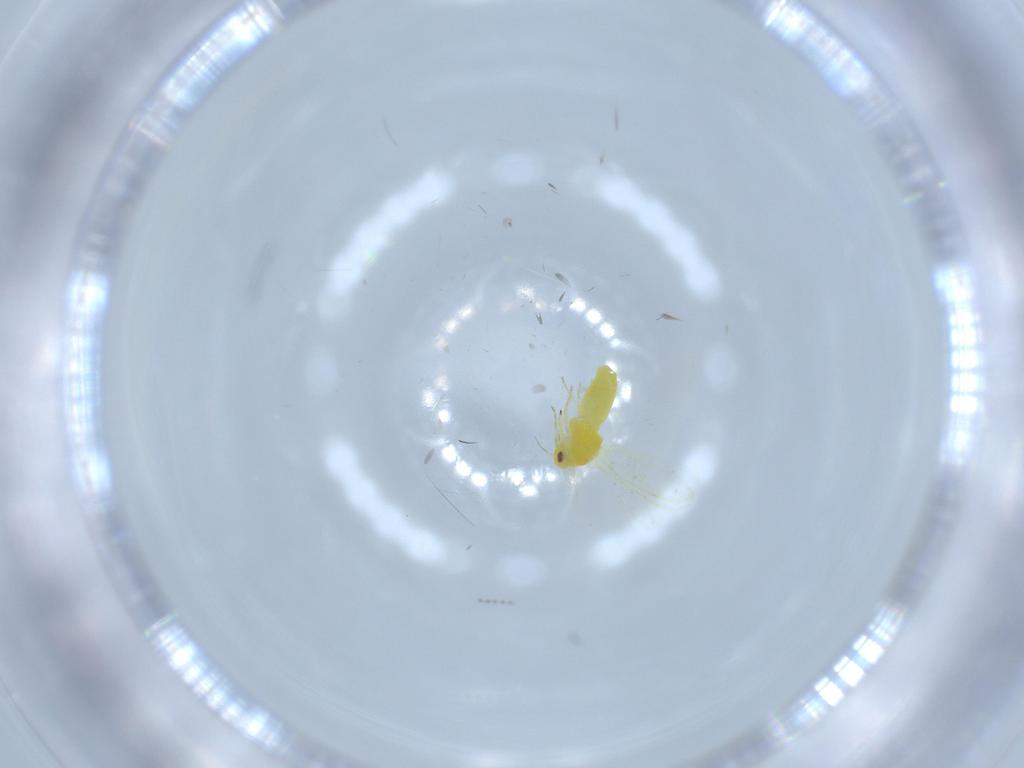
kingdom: Animalia
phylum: Arthropoda
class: Insecta
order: Hemiptera
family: Aleyrodidae
